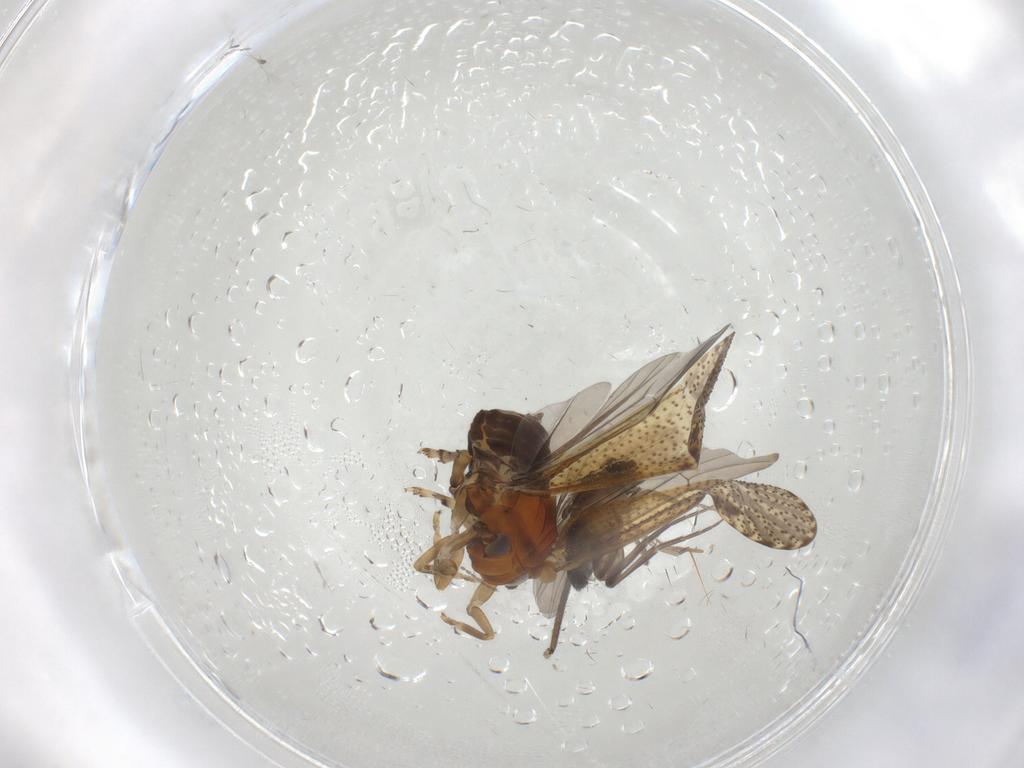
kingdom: Animalia
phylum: Arthropoda
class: Insecta
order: Diptera
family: Phoridae
